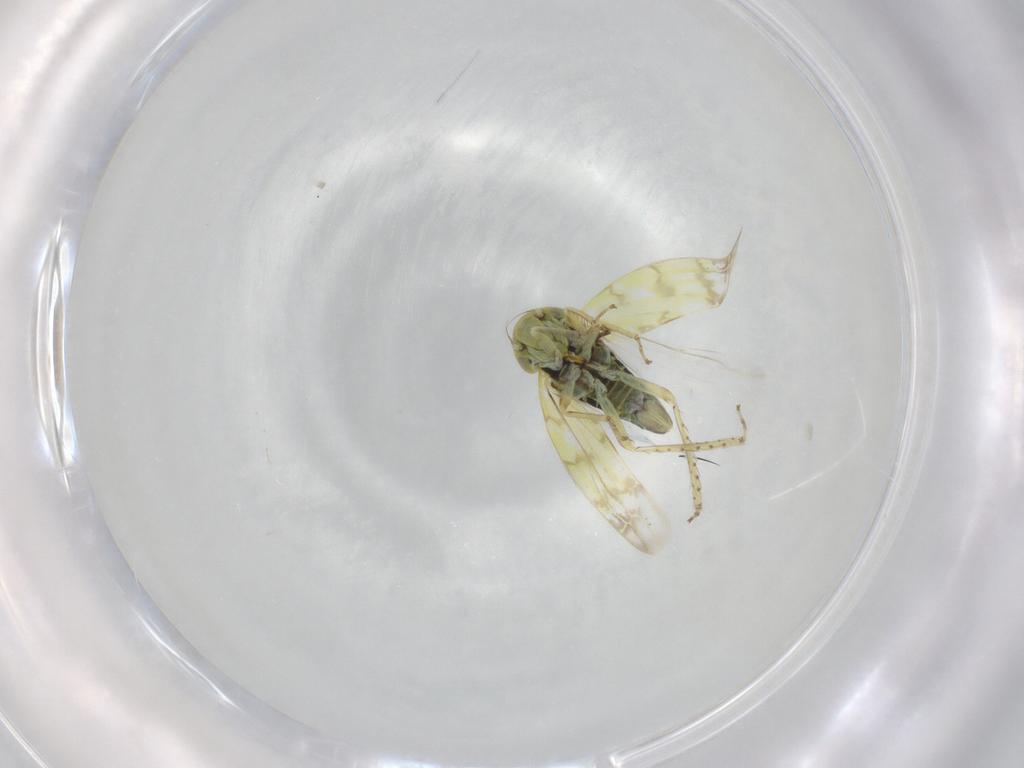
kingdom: Animalia
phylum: Arthropoda
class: Insecta
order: Hemiptera
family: Cicadellidae
